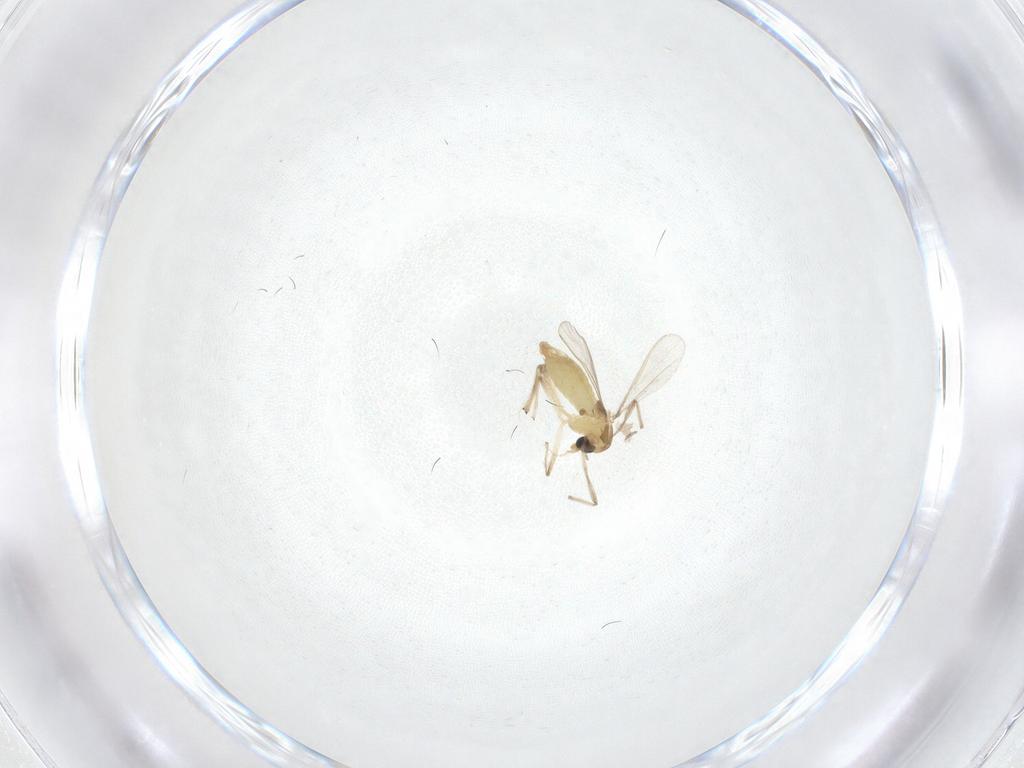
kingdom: Animalia
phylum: Arthropoda
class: Insecta
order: Diptera
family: Chironomidae
